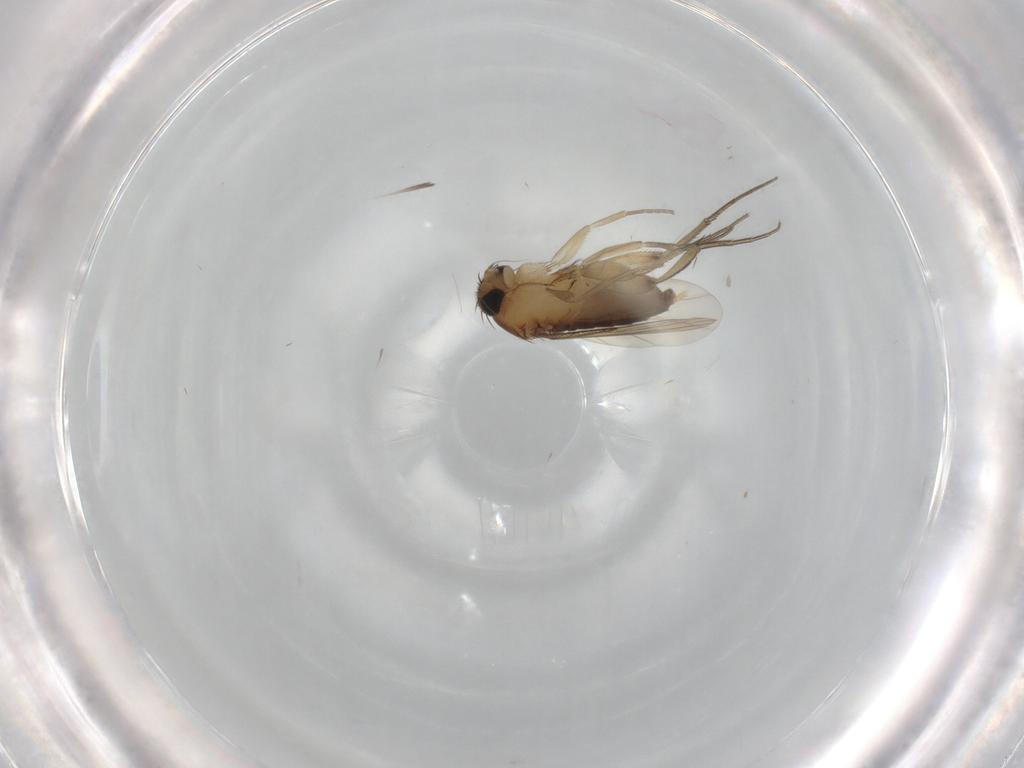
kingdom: Animalia
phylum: Arthropoda
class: Insecta
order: Diptera
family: Phoridae
